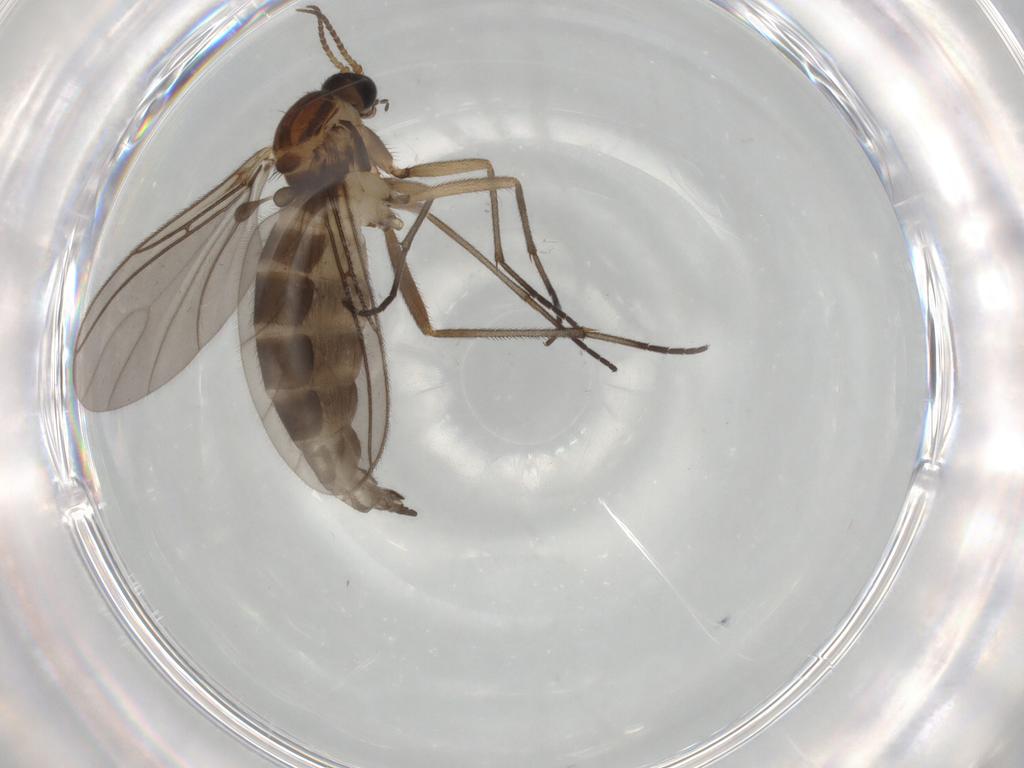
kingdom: Animalia
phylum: Arthropoda
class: Insecta
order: Diptera
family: Sciaridae
